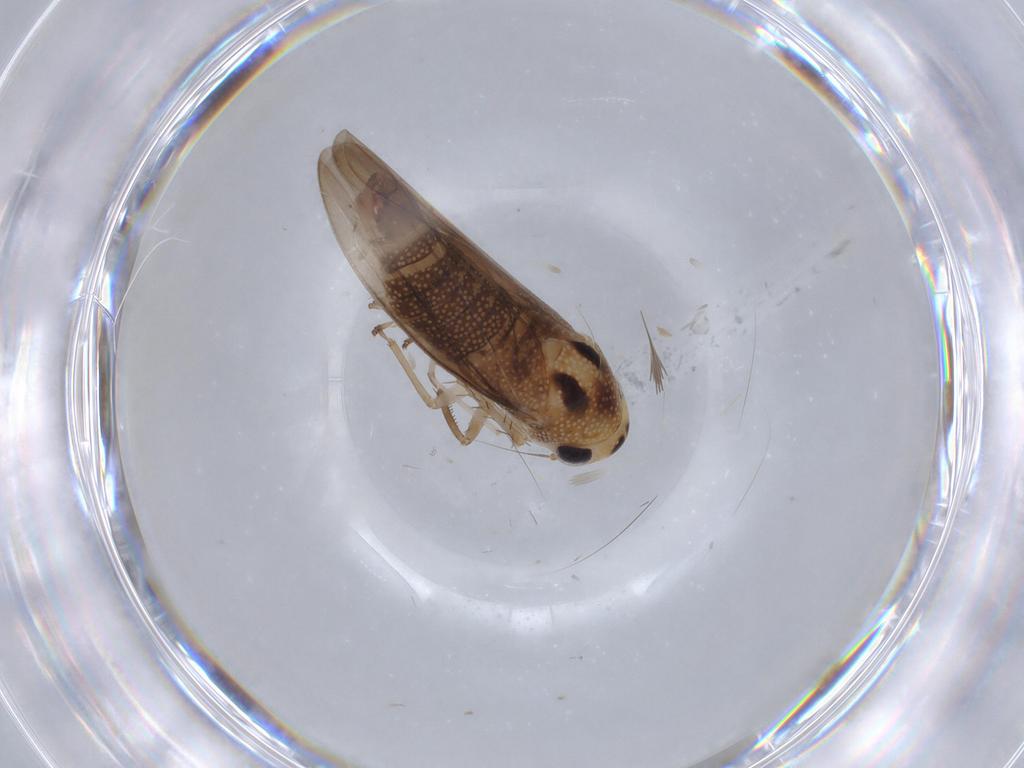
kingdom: Animalia
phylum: Arthropoda
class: Insecta
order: Hemiptera
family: Cicadellidae
